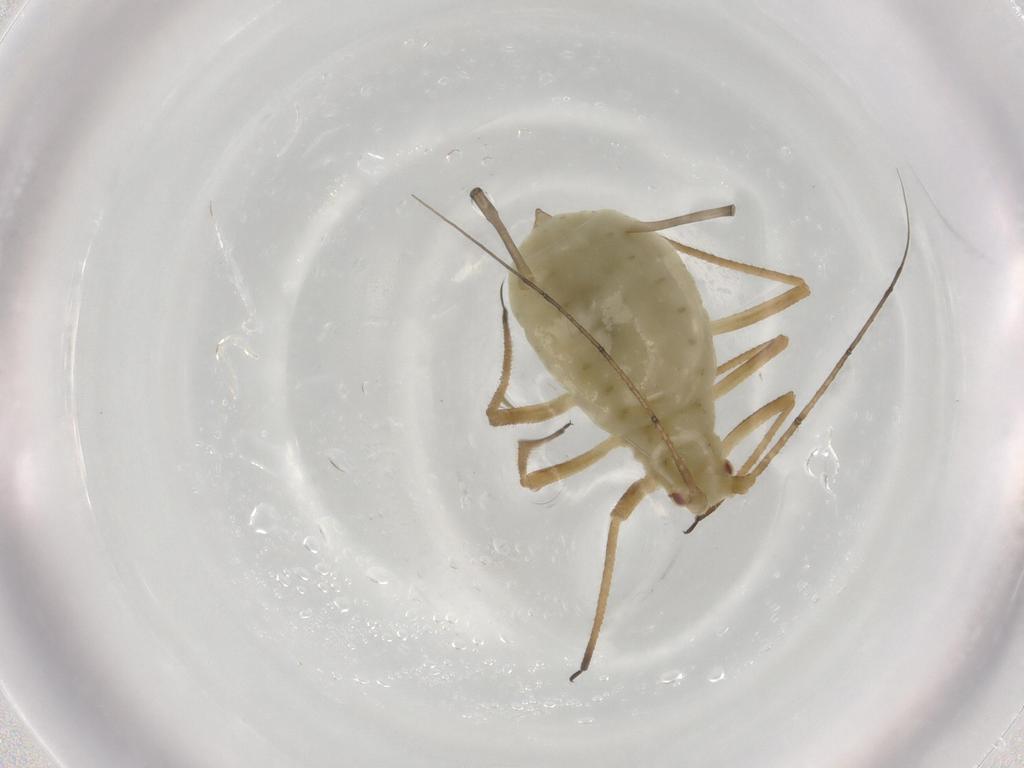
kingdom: Animalia
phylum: Arthropoda
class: Insecta
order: Hemiptera
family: Aphididae
